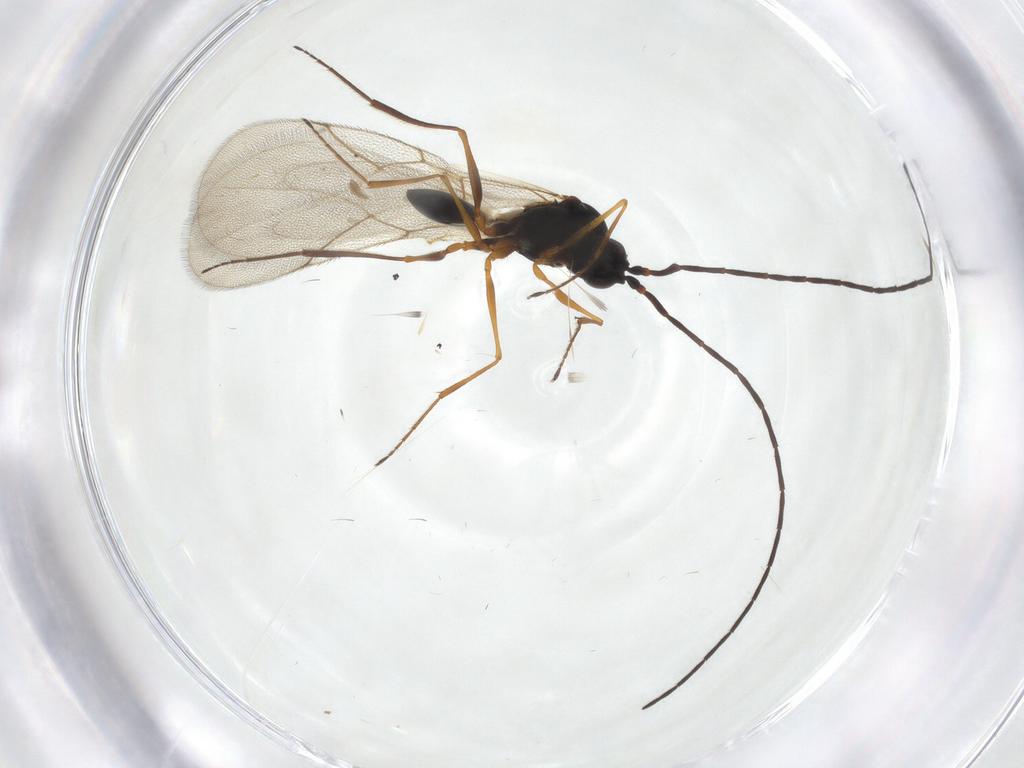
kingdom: Animalia
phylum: Arthropoda
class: Insecta
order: Hymenoptera
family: Figitidae
